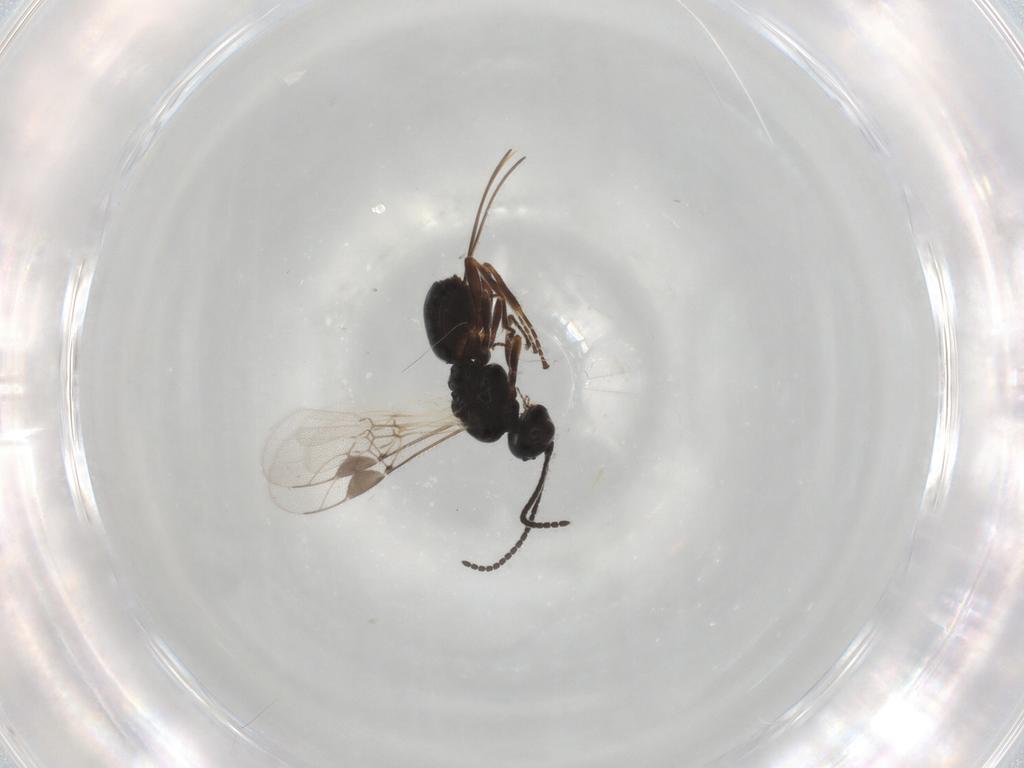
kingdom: Animalia
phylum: Arthropoda
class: Insecta
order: Hymenoptera
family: Braconidae
